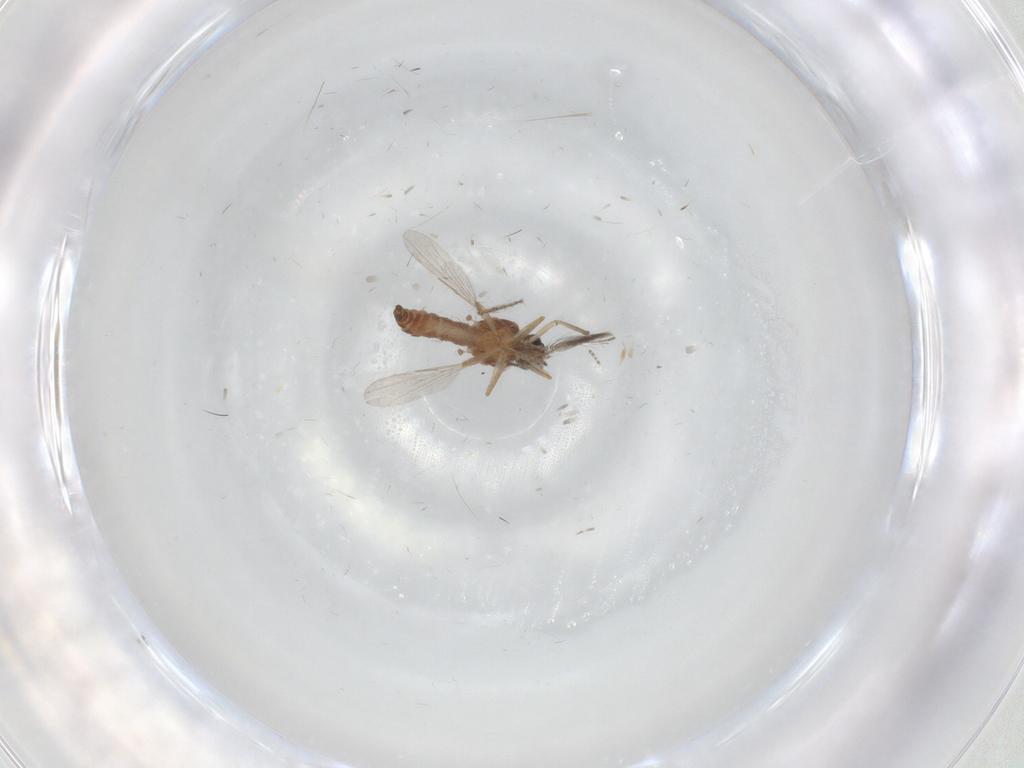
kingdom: Animalia
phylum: Arthropoda
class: Insecta
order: Diptera
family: Ceratopogonidae
